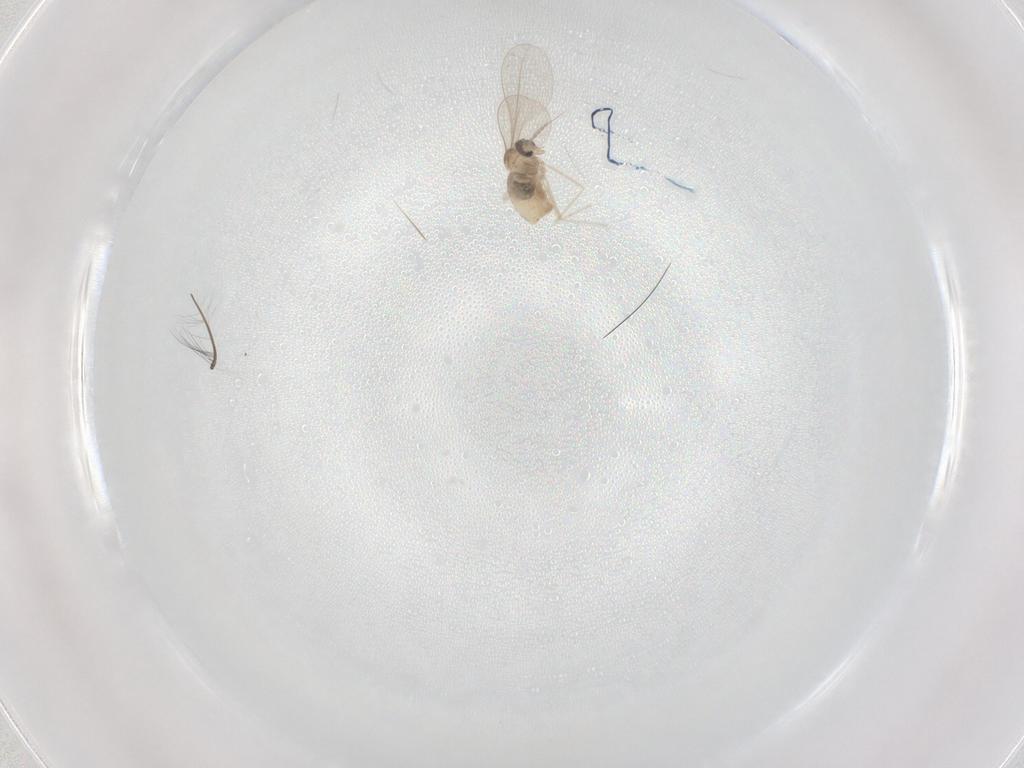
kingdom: Animalia
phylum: Arthropoda
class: Insecta
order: Diptera
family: Cecidomyiidae
